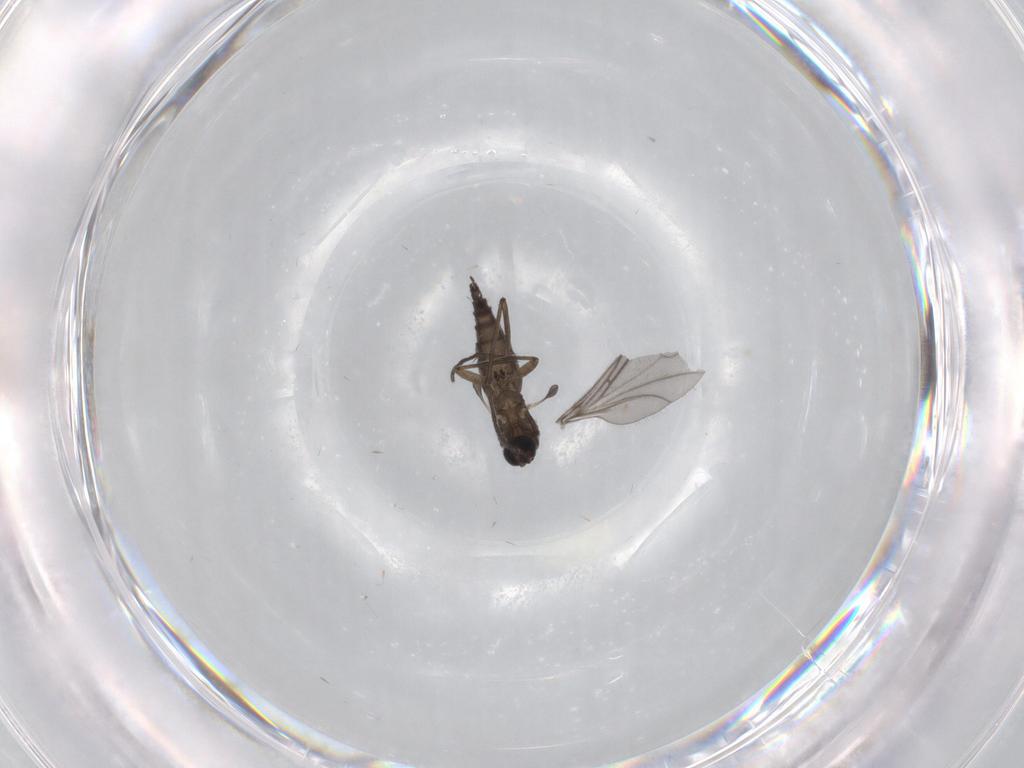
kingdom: Animalia
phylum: Arthropoda
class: Insecta
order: Diptera
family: Sciaridae
